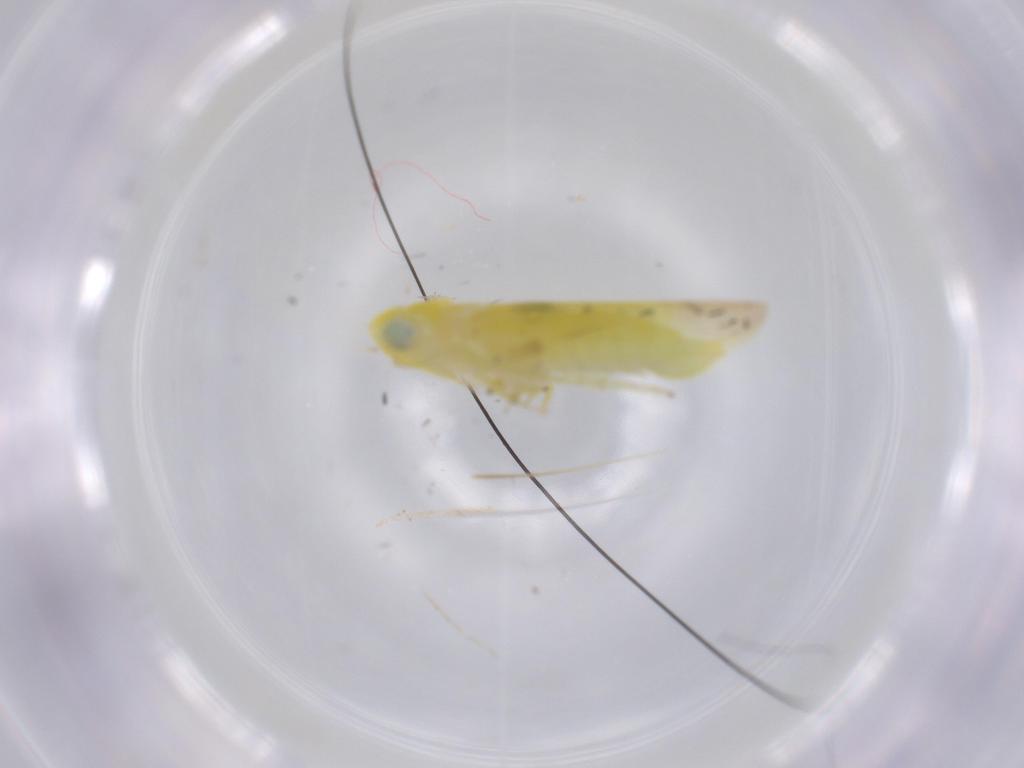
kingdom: Animalia
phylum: Arthropoda
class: Insecta
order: Hemiptera
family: Cicadellidae
